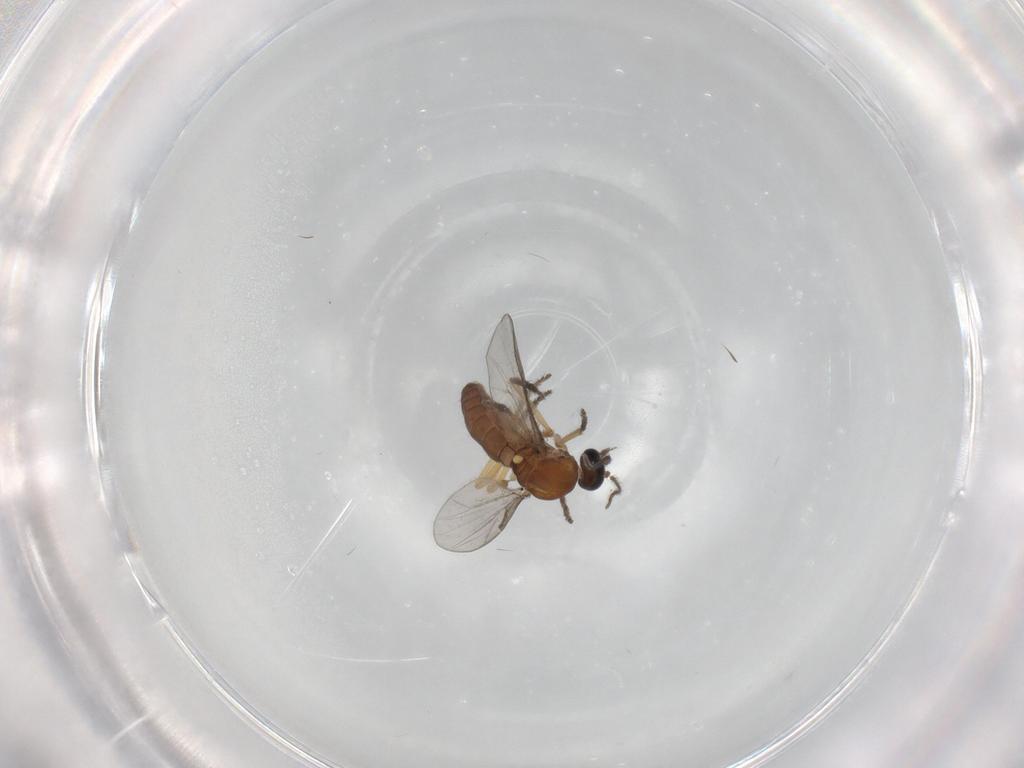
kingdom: Animalia
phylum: Arthropoda
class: Insecta
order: Diptera
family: Ceratopogonidae
